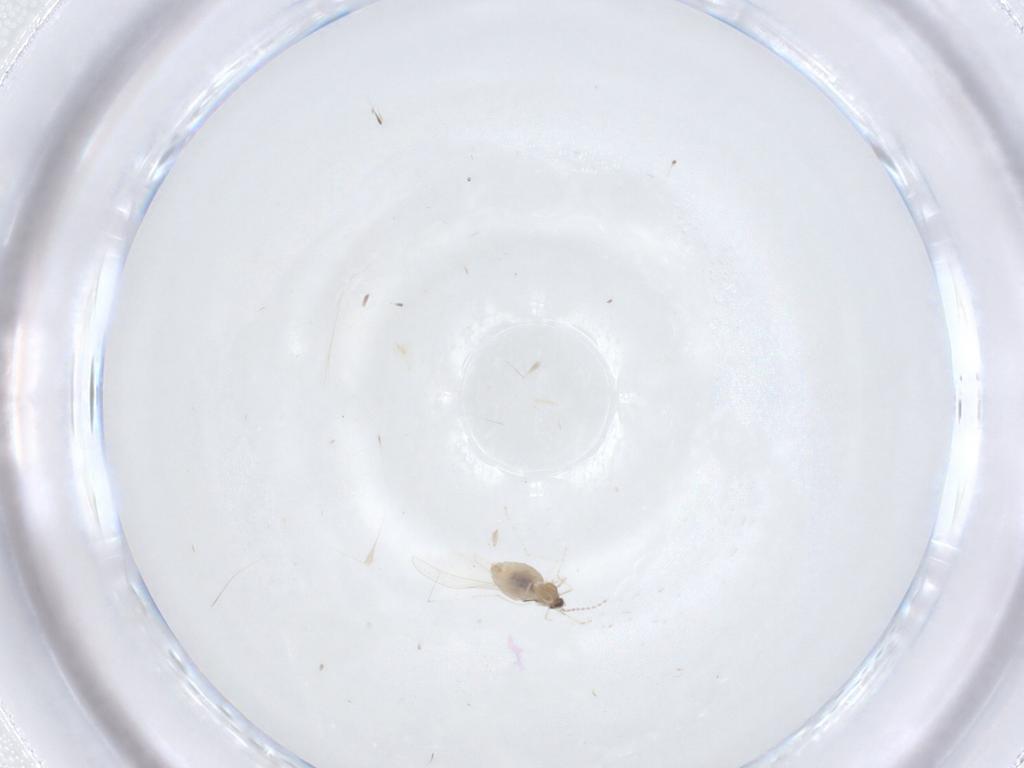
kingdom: Animalia
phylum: Arthropoda
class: Insecta
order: Diptera
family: Cecidomyiidae
